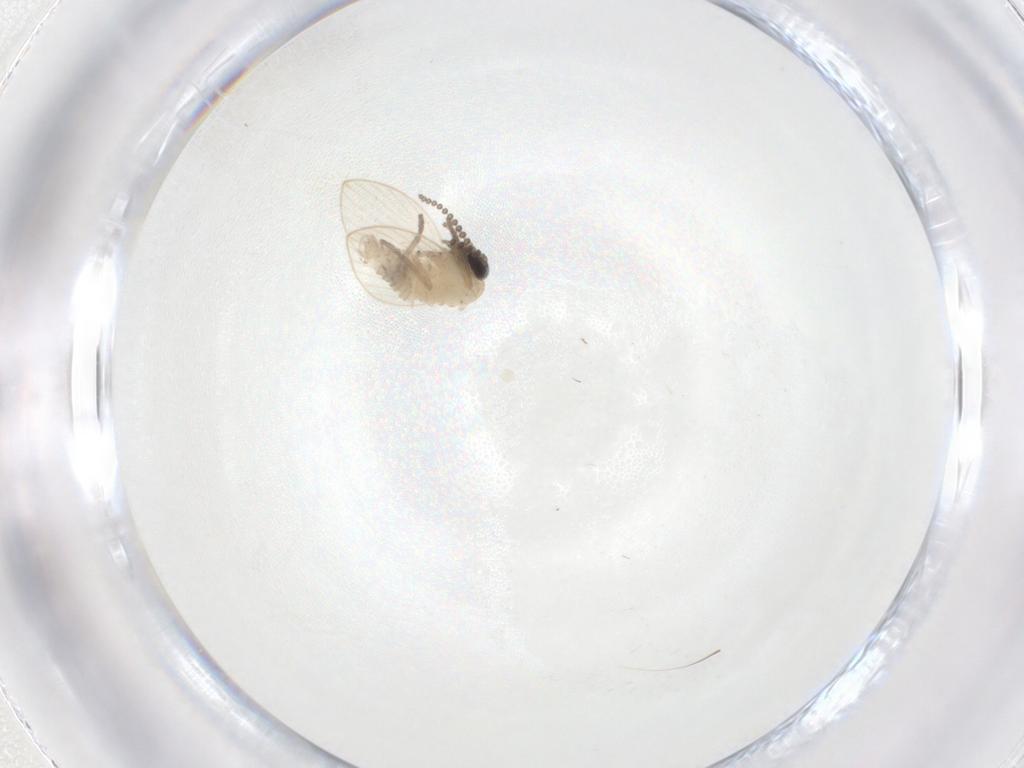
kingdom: Animalia
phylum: Arthropoda
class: Insecta
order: Diptera
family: Psychodidae
